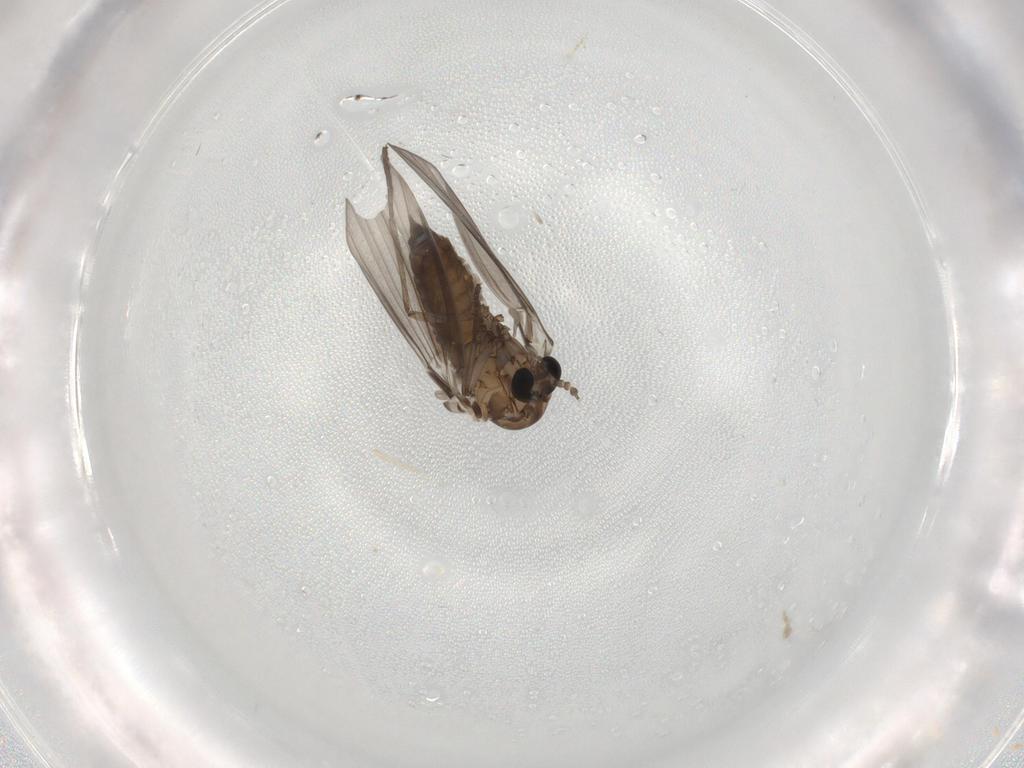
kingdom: Animalia
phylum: Arthropoda
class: Insecta
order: Diptera
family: Psychodidae
